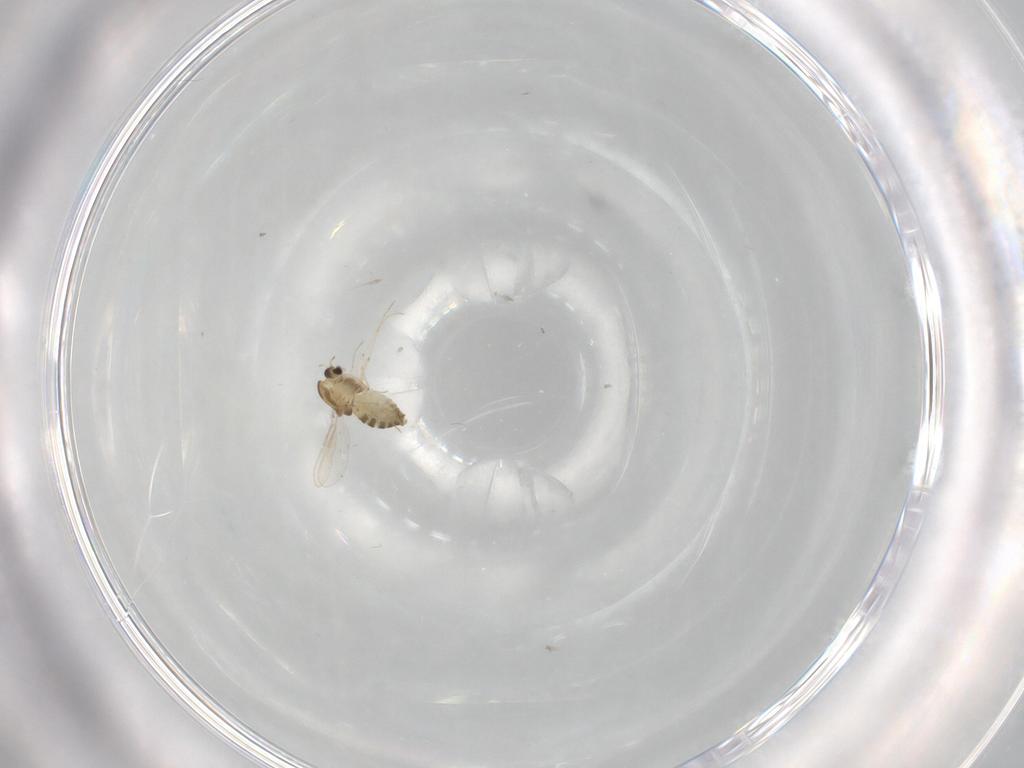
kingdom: Animalia
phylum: Arthropoda
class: Insecta
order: Diptera
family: Chironomidae
